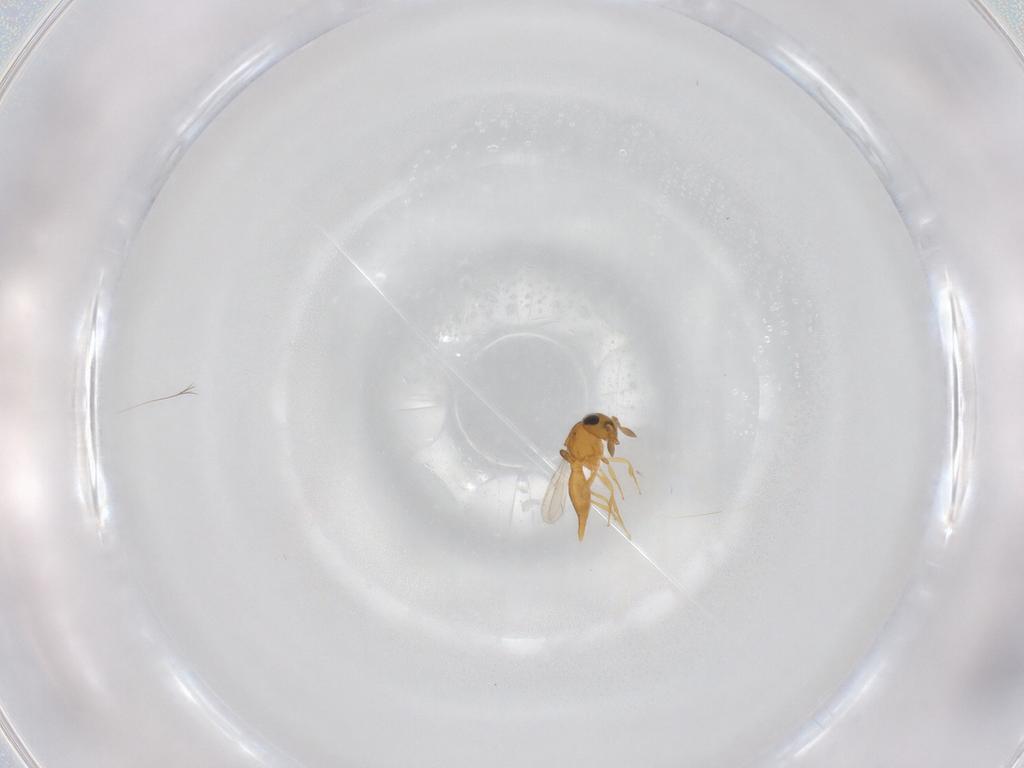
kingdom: Animalia
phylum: Arthropoda
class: Insecta
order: Hymenoptera
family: Scelionidae
